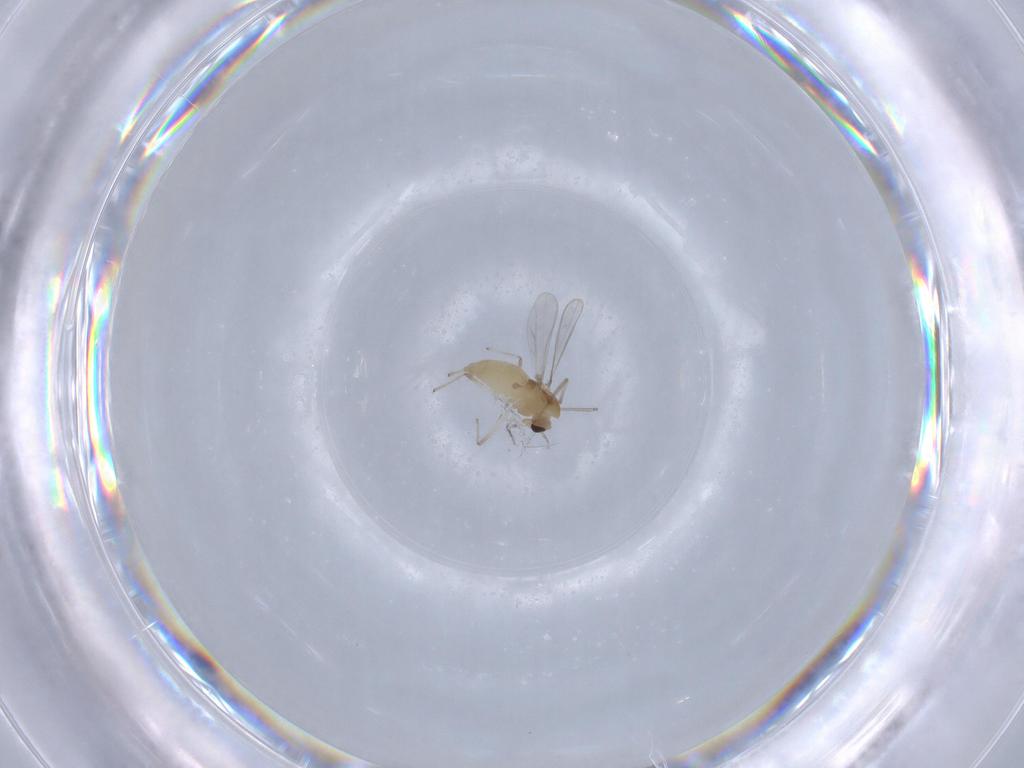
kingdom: Animalia
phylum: Arthropoda
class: Insecta
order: Diptera
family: Chironomidae
